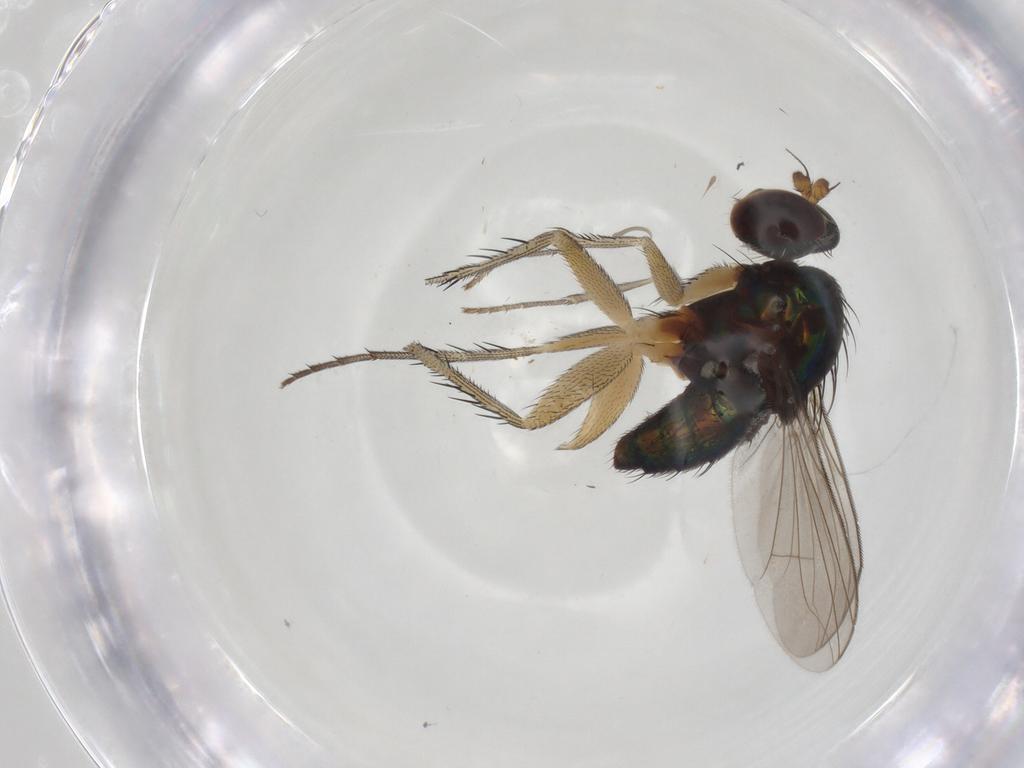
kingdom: Animalia
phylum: Arthropoda
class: Insecta
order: Diptera
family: Dolichopodidae
